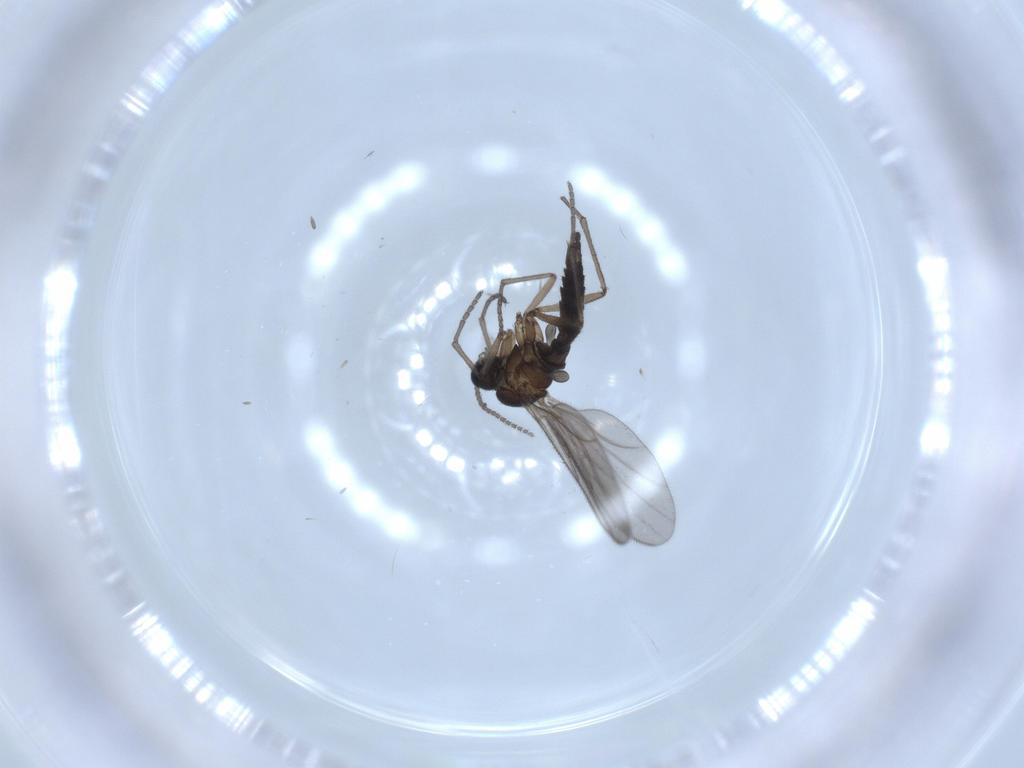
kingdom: Animalia
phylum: Arthropoda
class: Insecta
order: Diptera
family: Sciaridae
